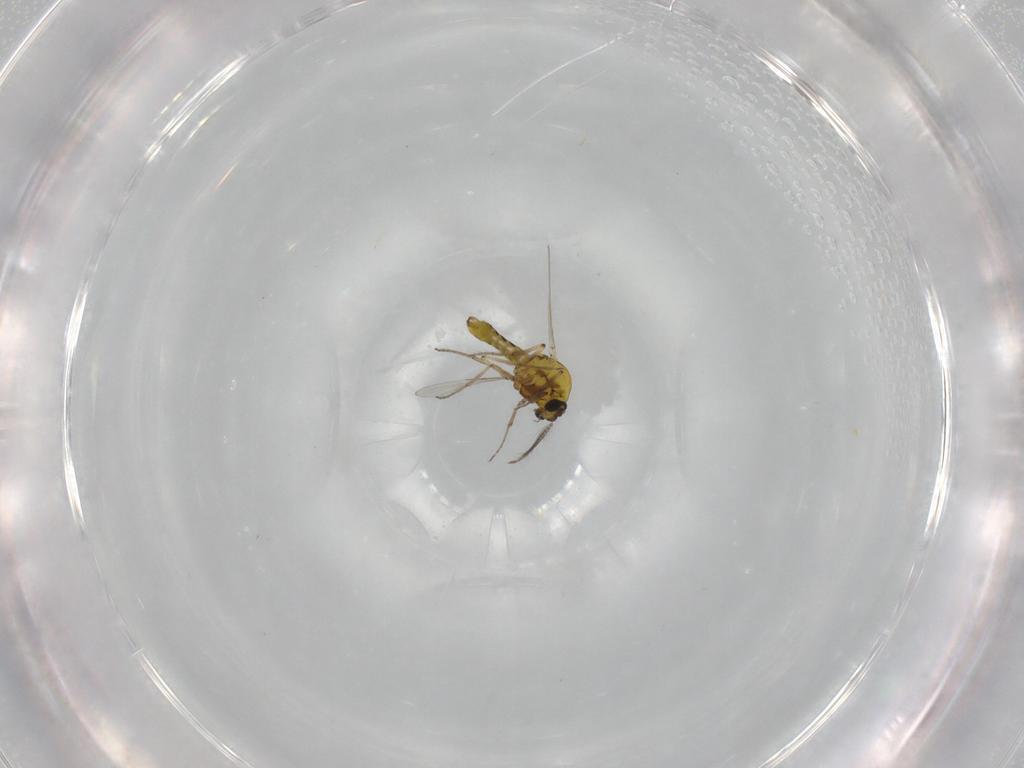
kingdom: Animalia
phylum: Arthropoda
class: Insecta
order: Diptera
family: Ceratopogonidae
